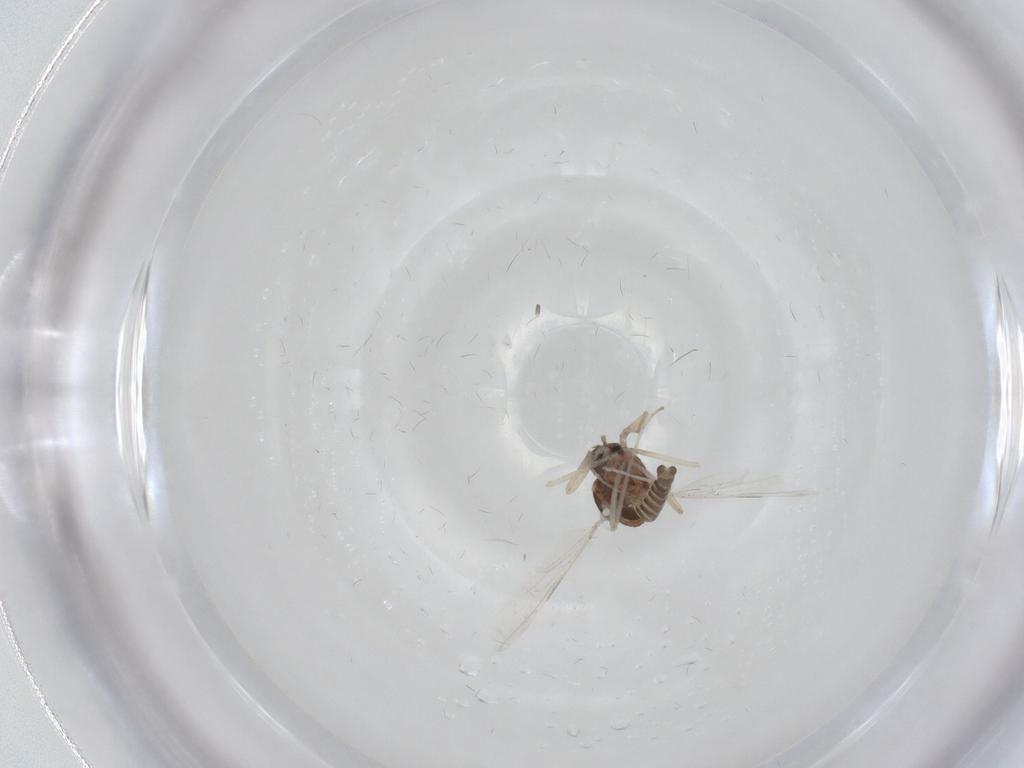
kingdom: Animalia
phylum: Arthropoda
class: Insecta
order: Diptera
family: Ceratopogonidae
